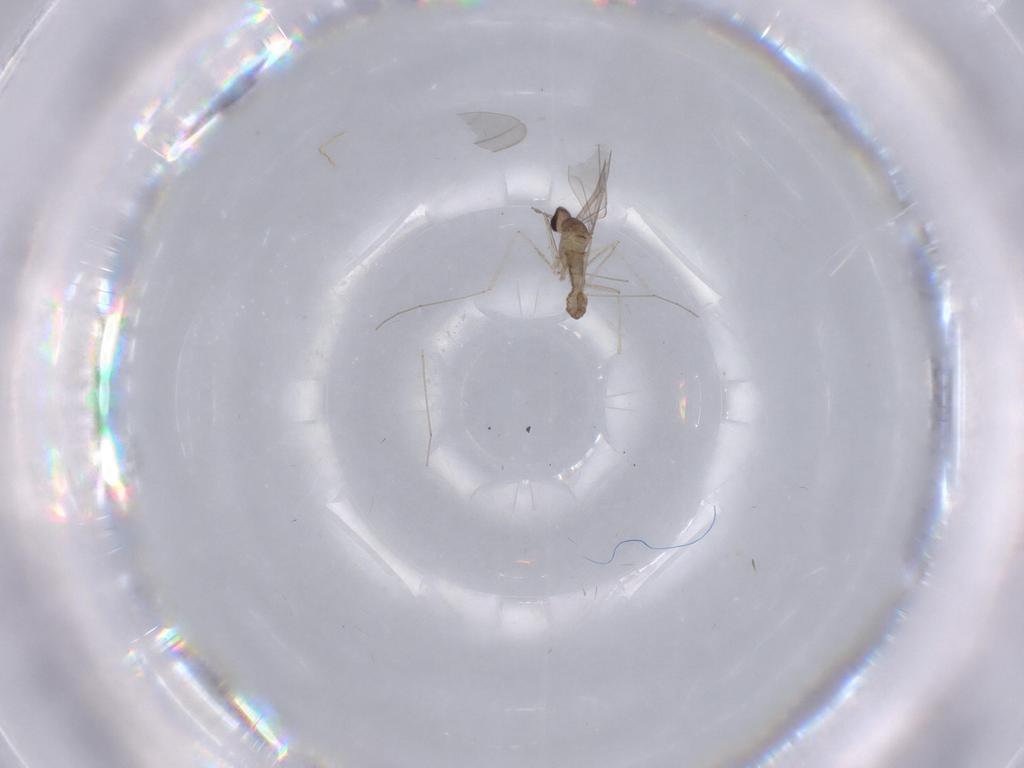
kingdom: Animalia
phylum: Arthropoda
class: Insecta
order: Diptera
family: Cecidomyiidae
